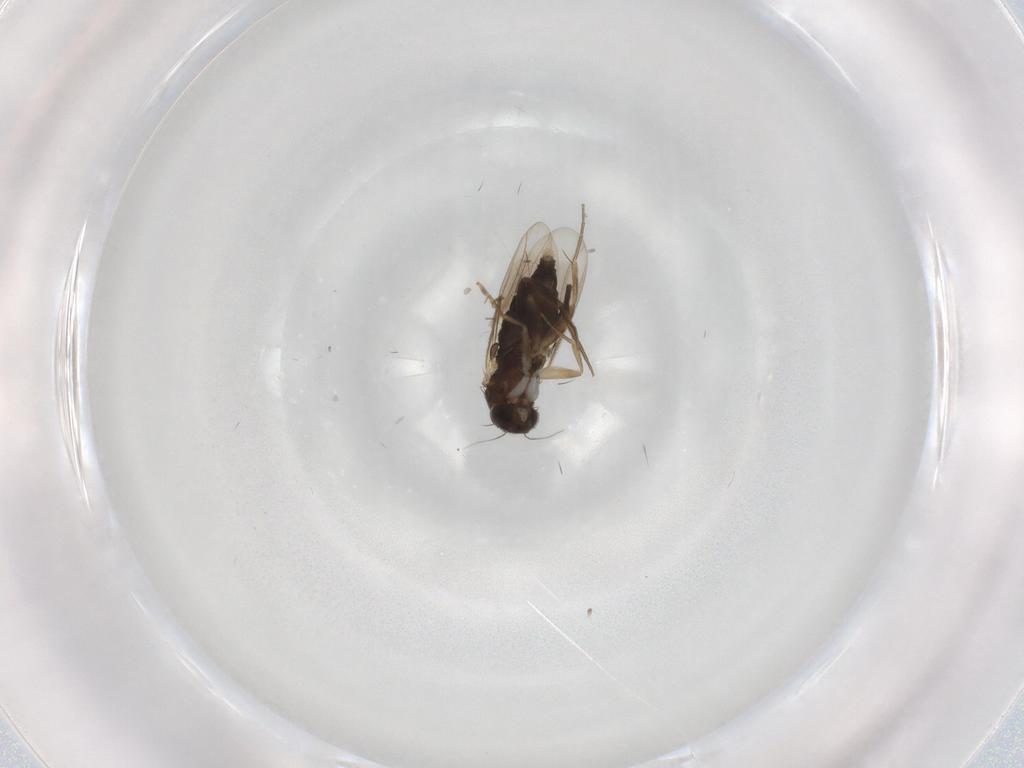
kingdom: Animalia
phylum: Arthropoda
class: Insecta
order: Diptera
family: Phoridae
